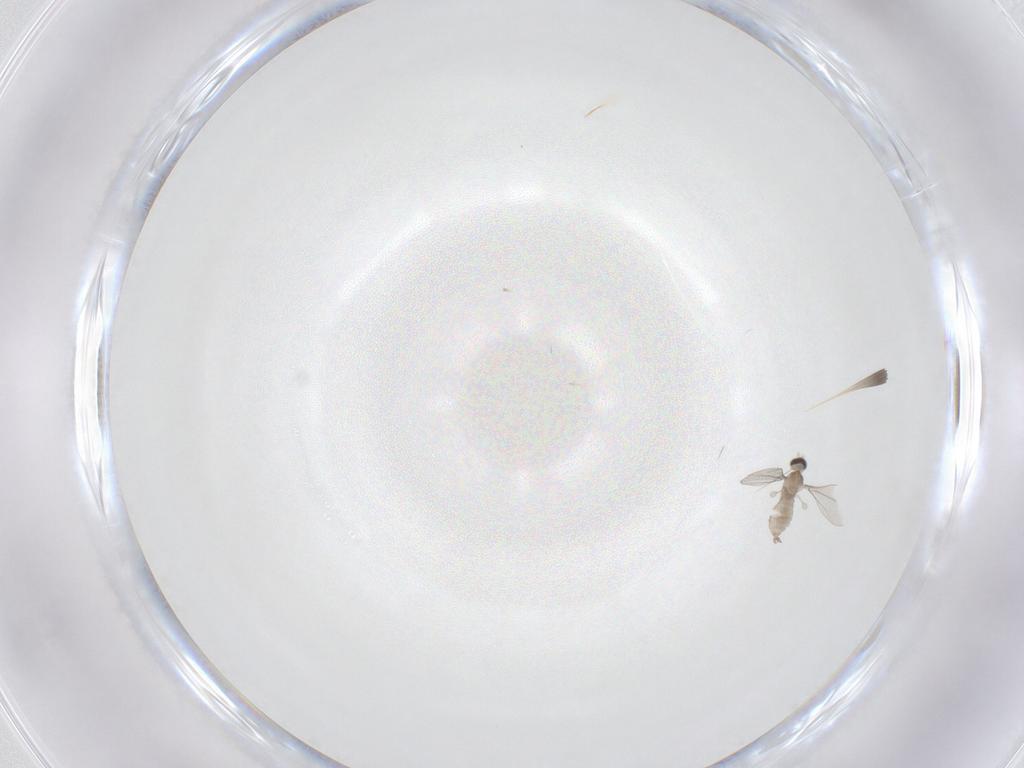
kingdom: Animalia
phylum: Arthropoda
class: Insecta
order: Diptera
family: Cecidomyiidae
